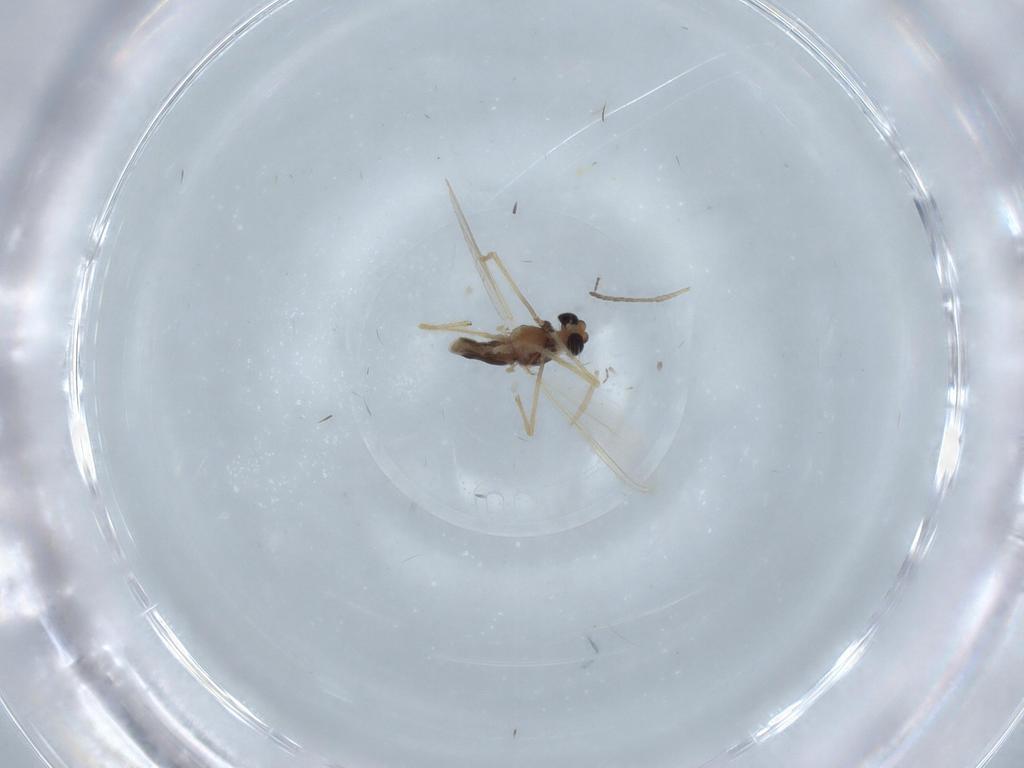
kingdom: Animalia
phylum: Arthropoda
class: Insecta
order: Diptera
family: Chironomidae
